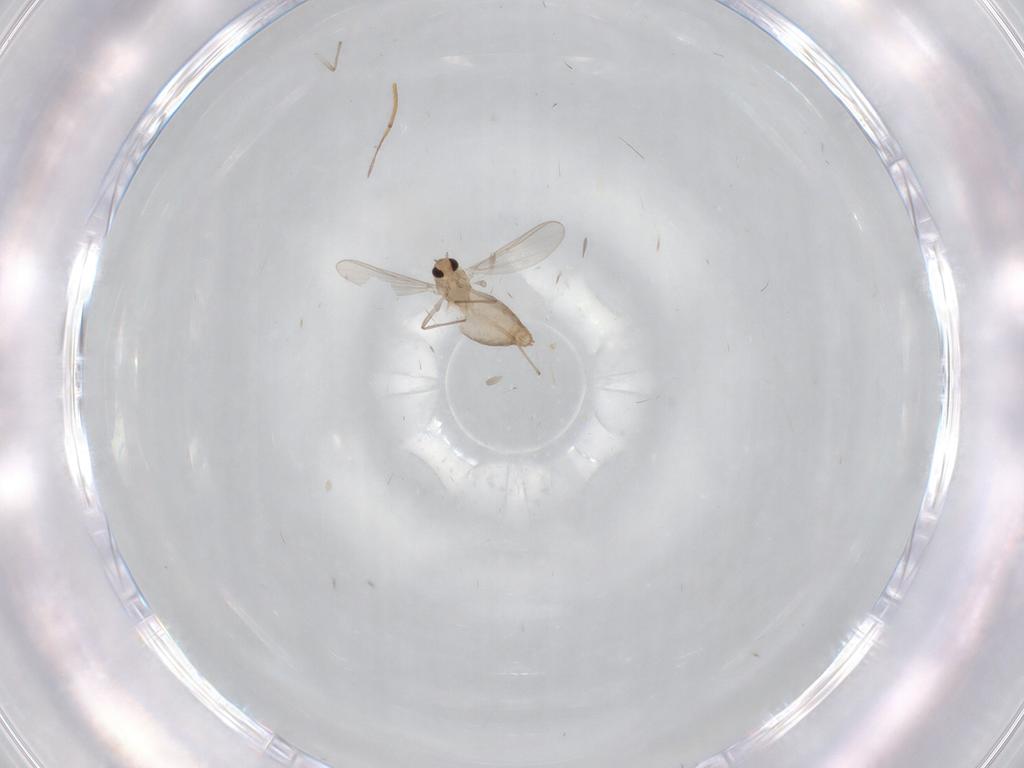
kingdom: Animalia
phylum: Arthropoda
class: Insecta
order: Diptera
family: Chironomidae
